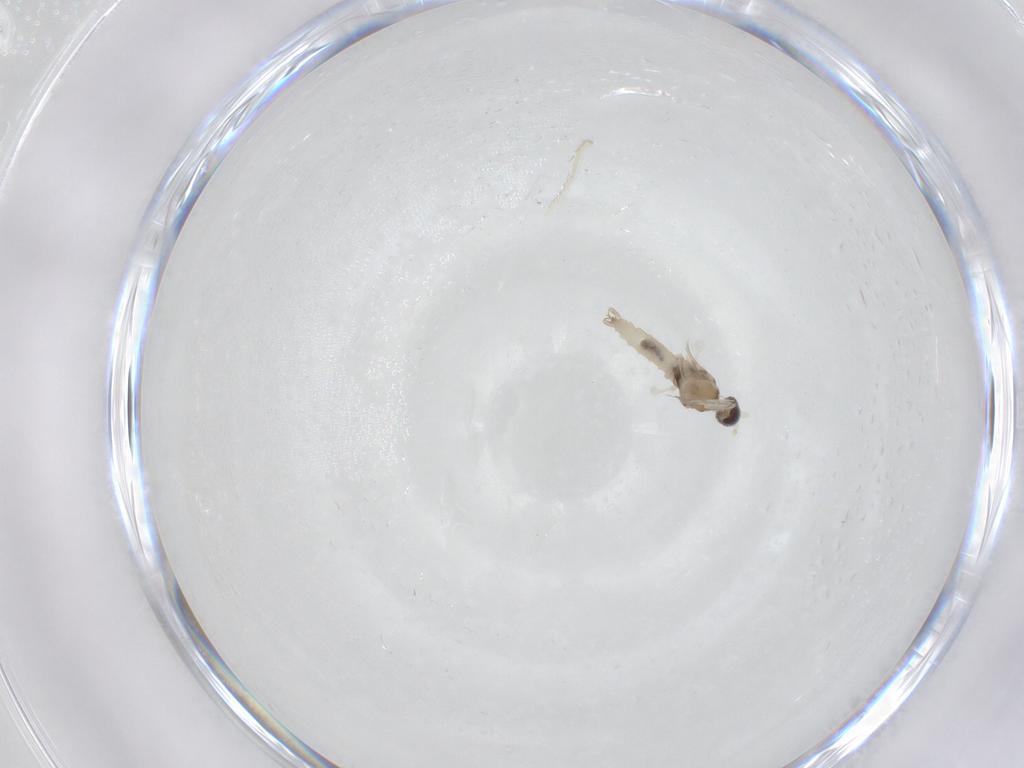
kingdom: Animalia
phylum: Arthropoda
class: Insecta
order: Diptera
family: Cecidomyiidae
